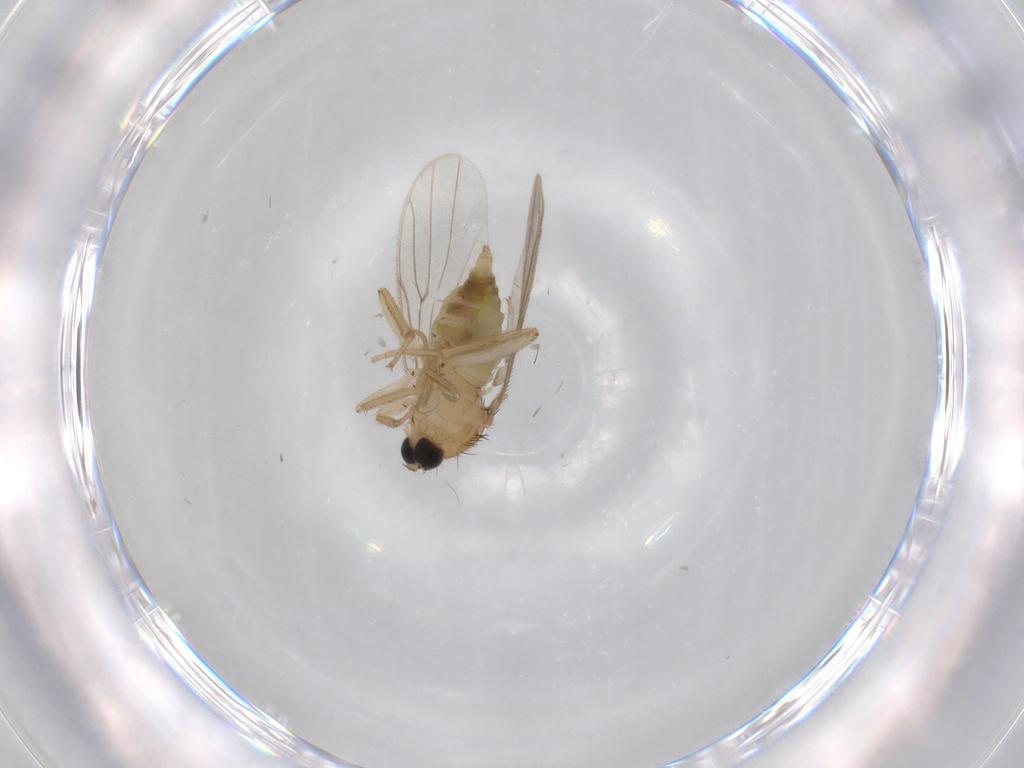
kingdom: Animalia
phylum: Arthropoda
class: Insecta
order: Diptera
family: Hybotidae
